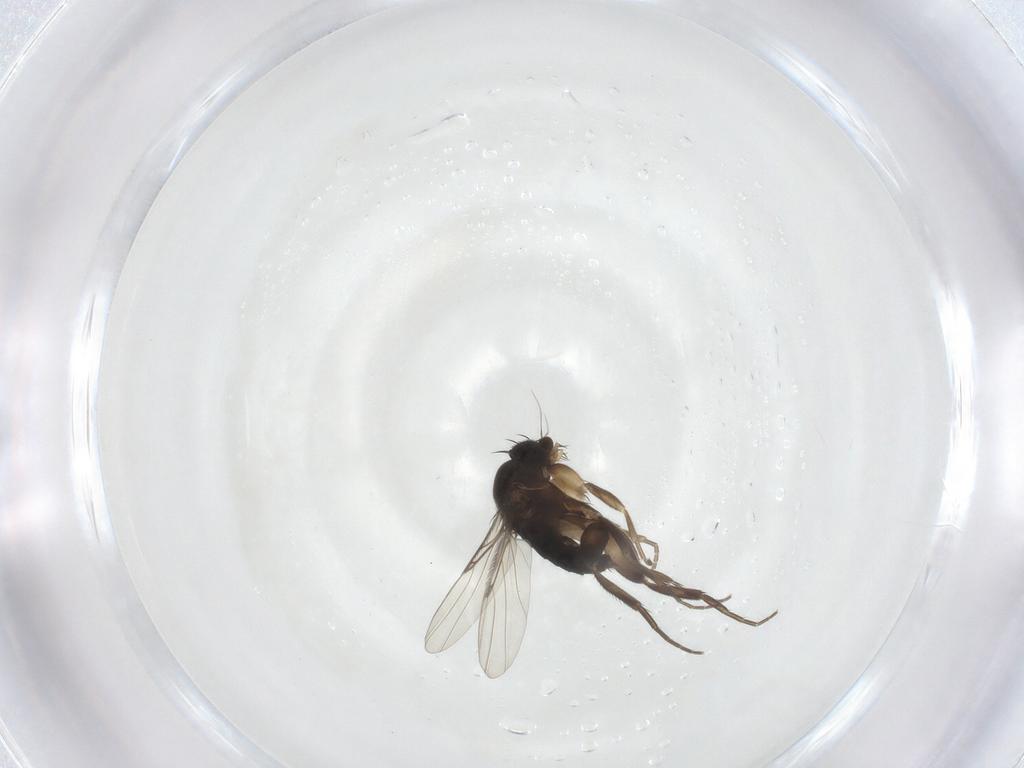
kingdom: Animalia
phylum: Arthropoda
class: Insecta
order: Diptera
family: Phoridae
